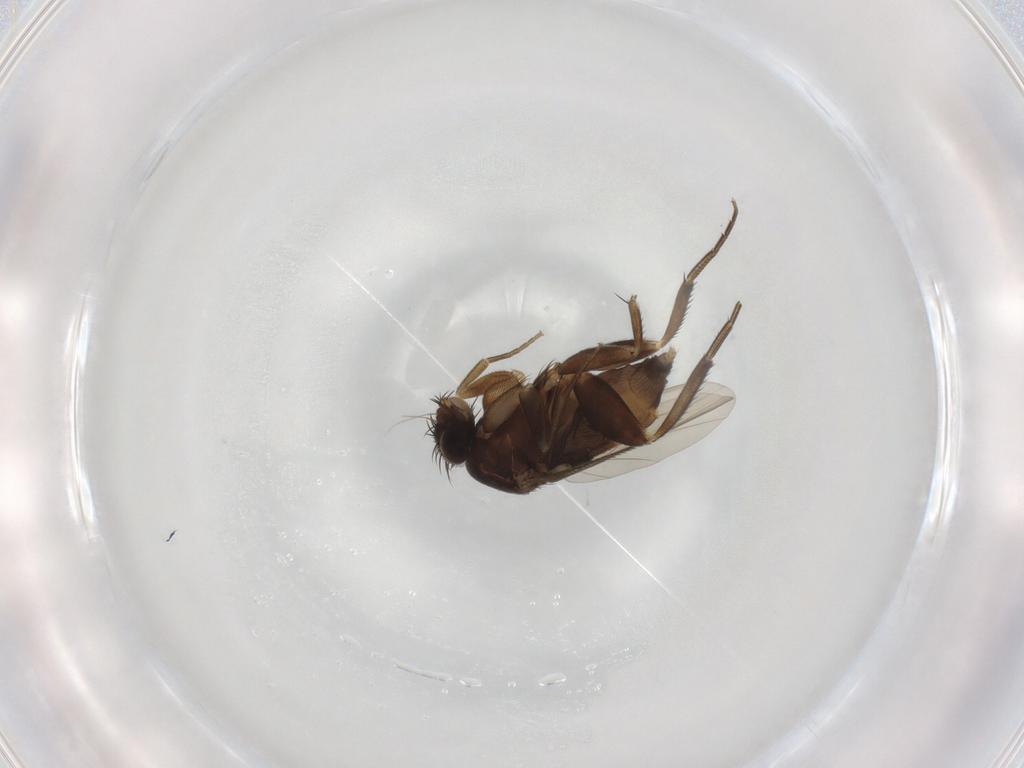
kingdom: Animalia
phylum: Arthropoda
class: Insecta
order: Diptera
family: Phoridae
